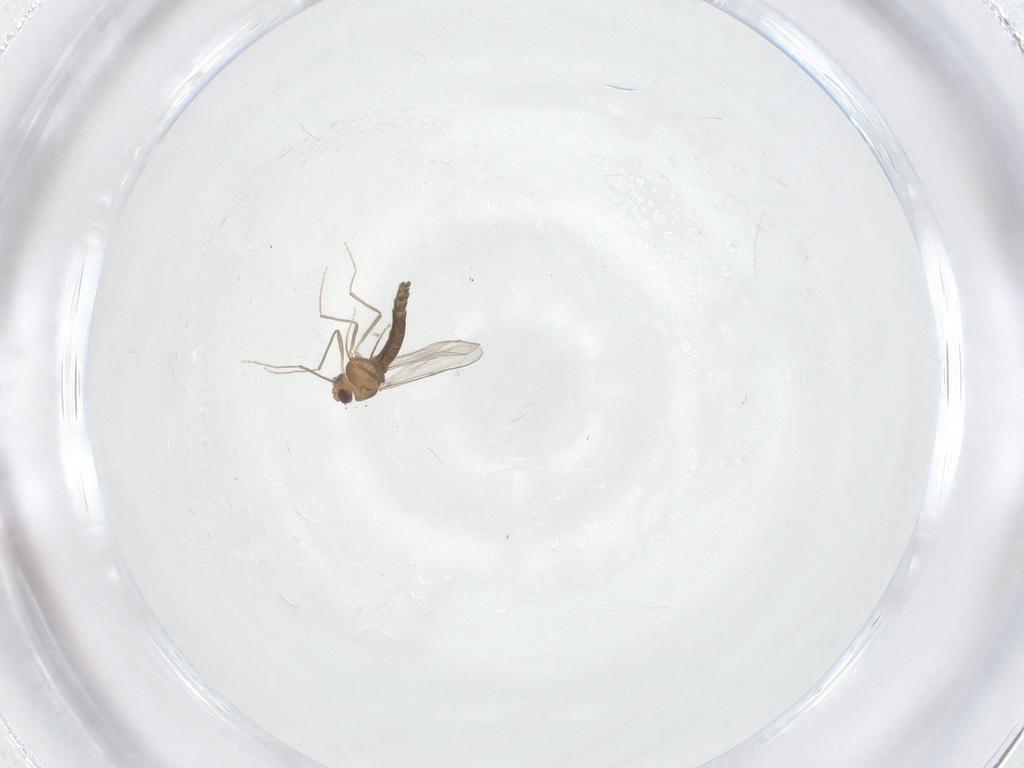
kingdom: Animalia
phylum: Arthropoda
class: Insecta
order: Diptera
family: Chironomidae
